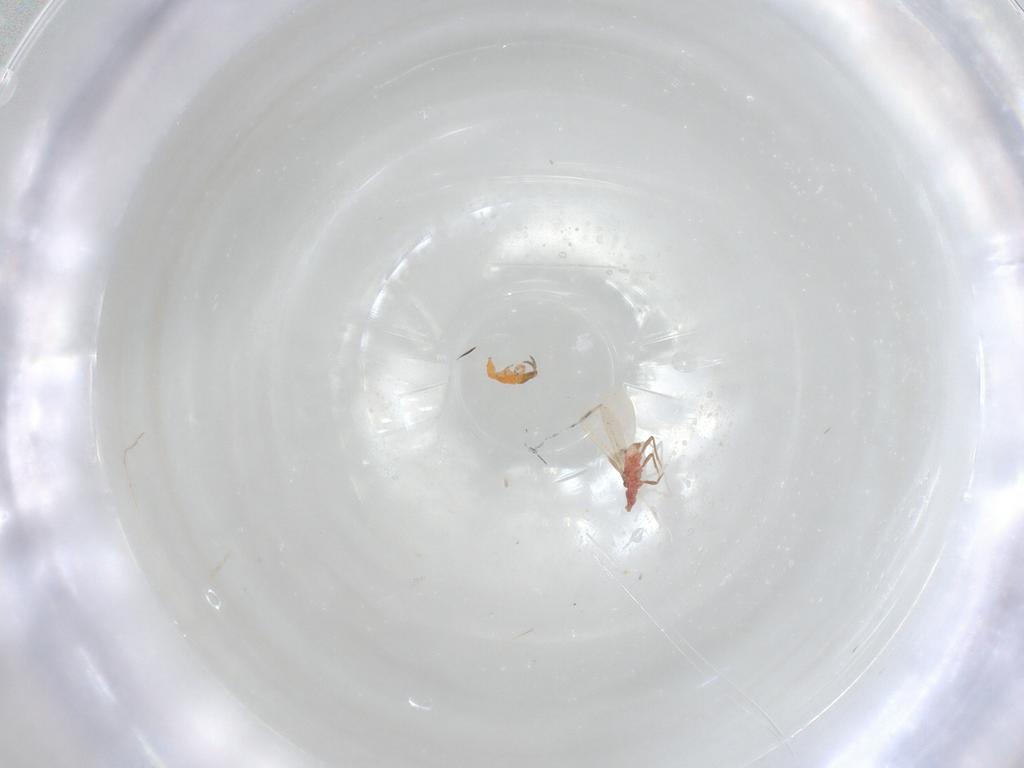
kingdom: Animalia
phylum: Arthropoda
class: Insecta
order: Thysanoptera
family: Phlaeothripidae
